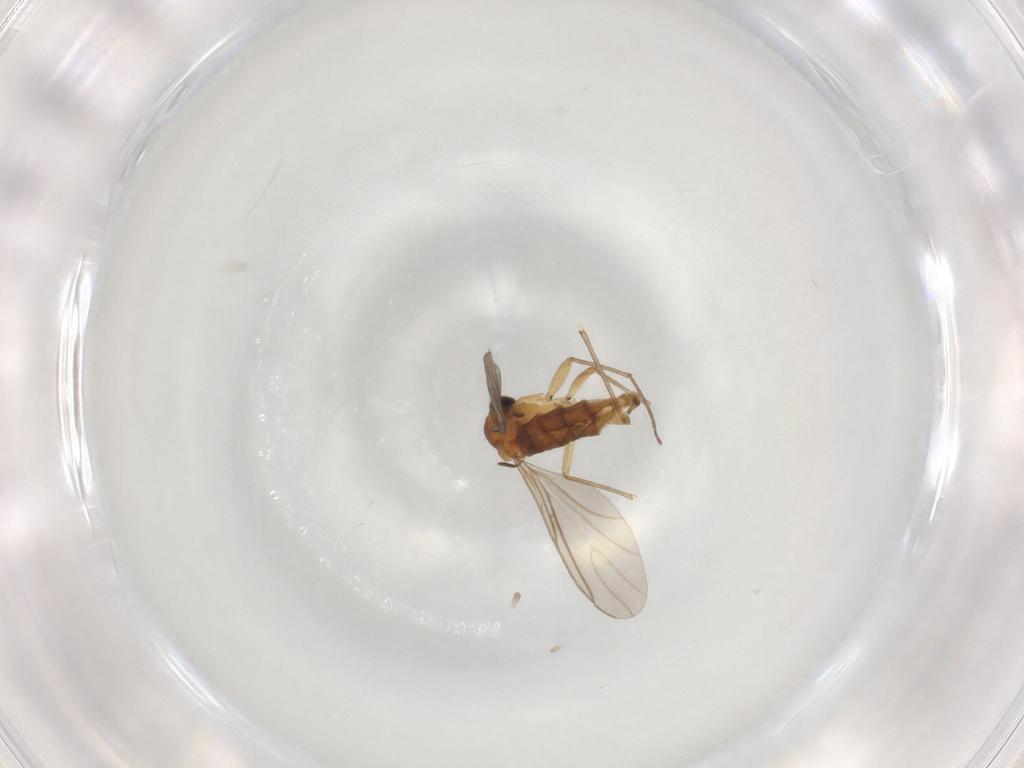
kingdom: Animalia
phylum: Arthropoda
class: Insecta
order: Diptera
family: Sciaridae
